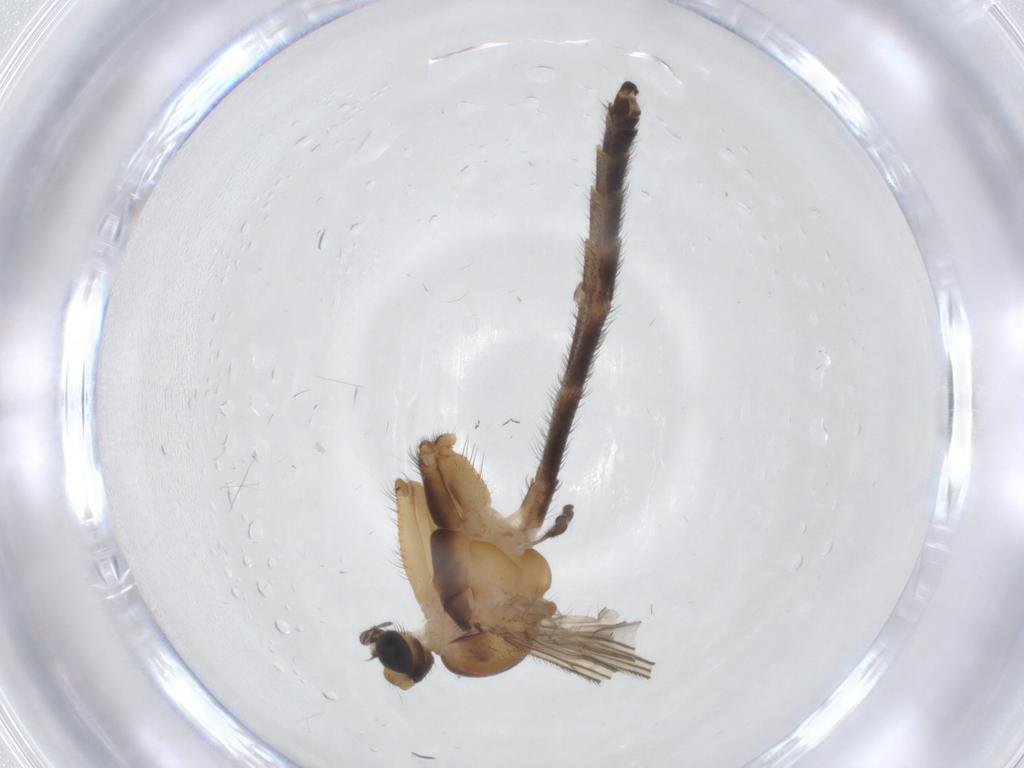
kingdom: Animalia
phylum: Arthropoda
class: Insecta
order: Diptera
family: Keroplatidae
